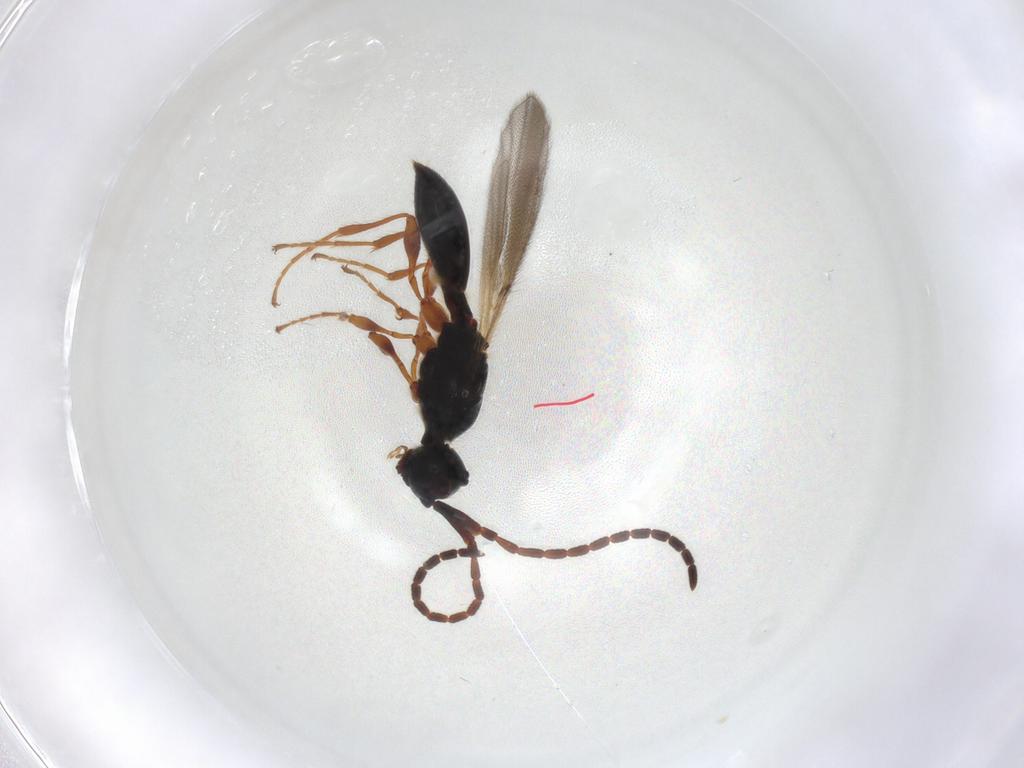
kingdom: Animalia
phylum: Arthropoda
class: Insecta
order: Hymenoptera
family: Diapriidae
